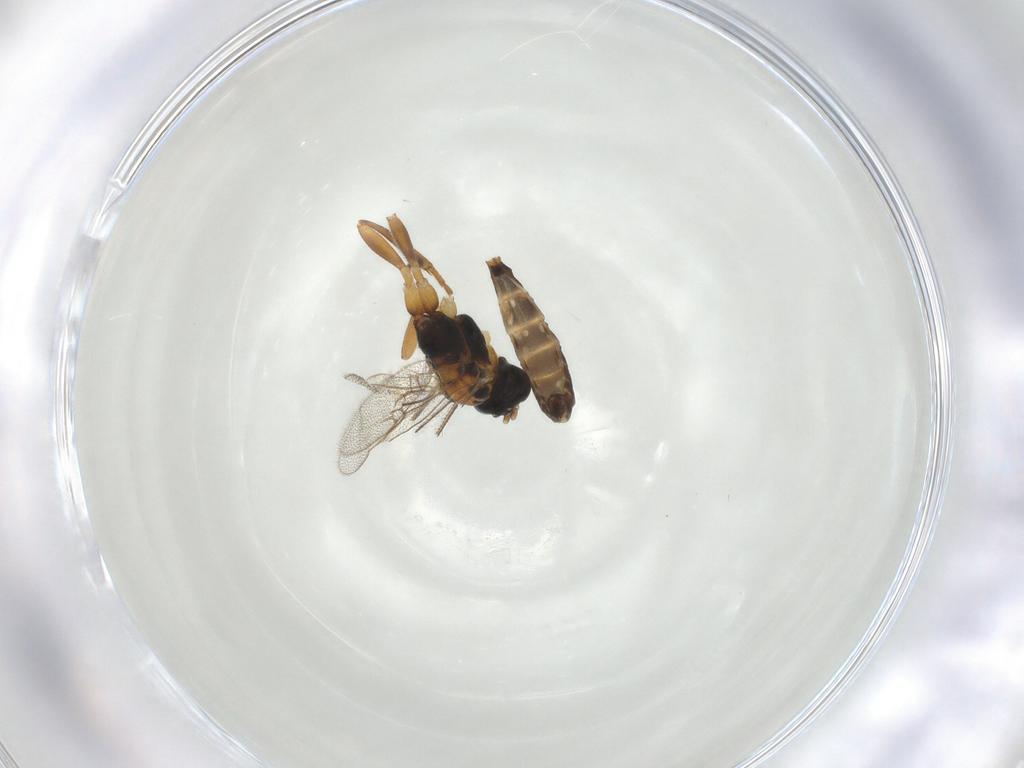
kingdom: Animalia
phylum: Arthropoda
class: Insecta
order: Hymenoptera
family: Ichneumonidae
